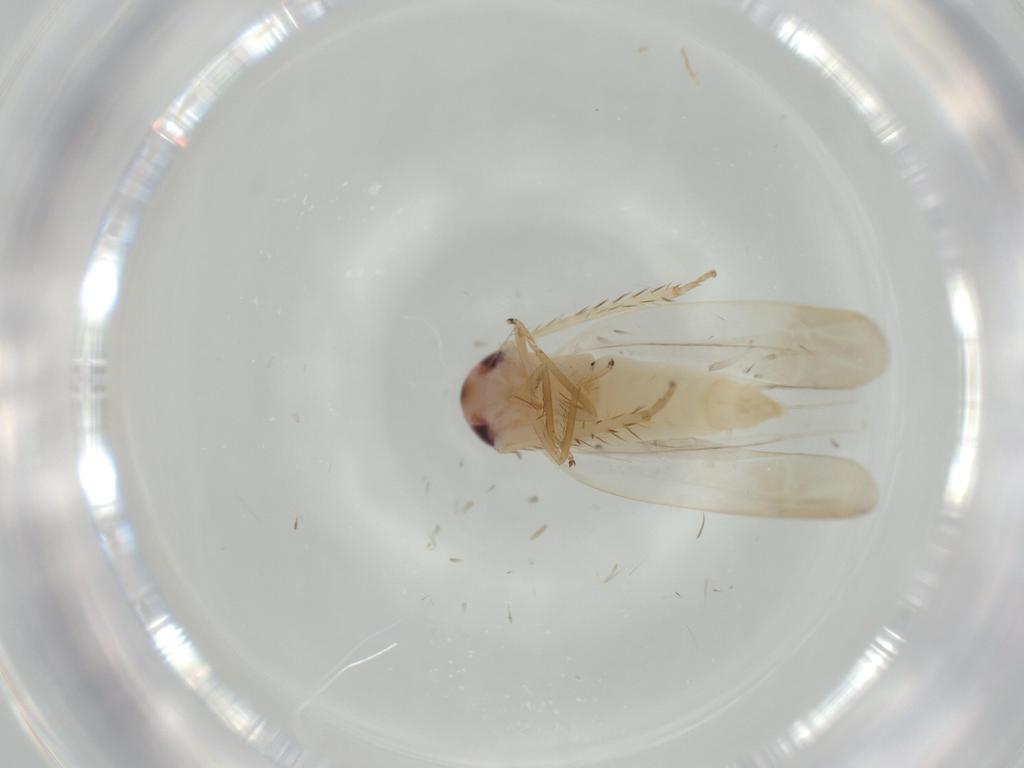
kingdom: Animalia
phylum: Arthropoda
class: Insecta
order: Hemiptera
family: Cicadellidae
